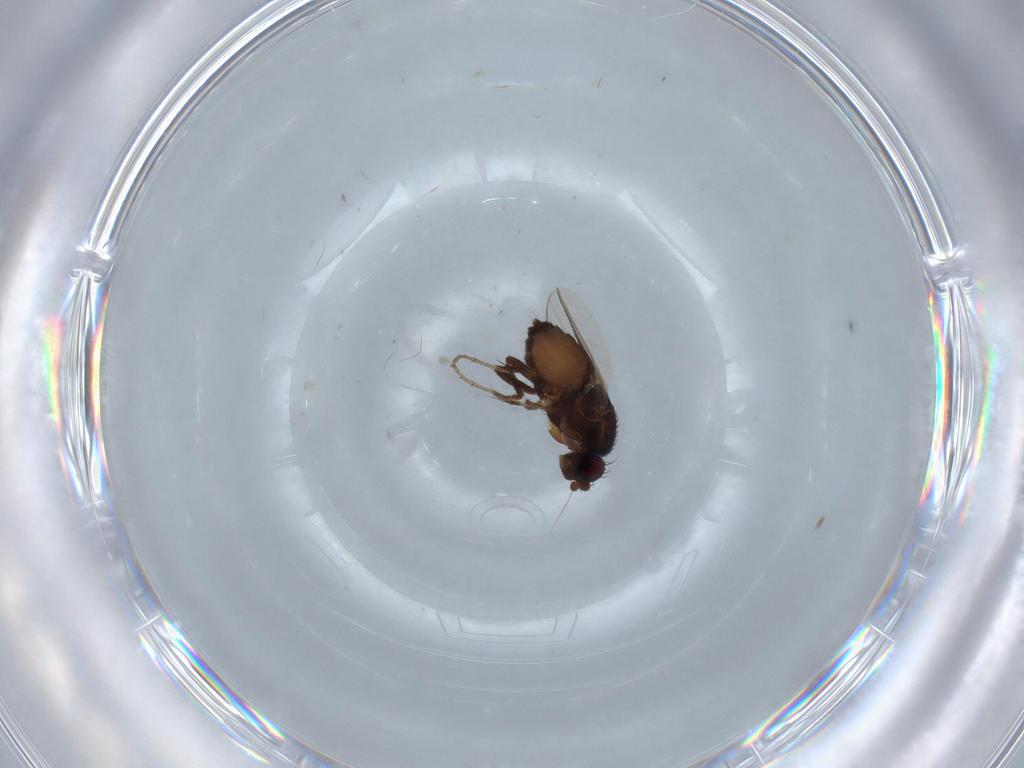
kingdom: Animalia
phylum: Arthropoda
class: Insecta
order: Diptera
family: Sphaeroceridae
